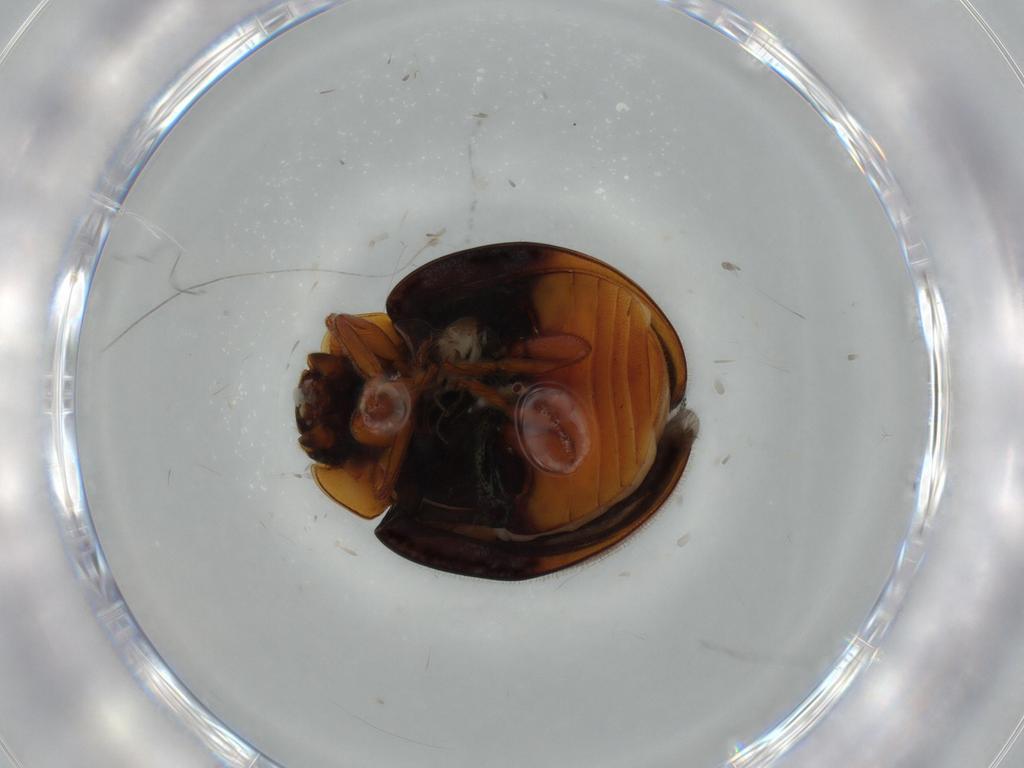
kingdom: Animalia
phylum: Arthropoda
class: Insecta
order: Coleoptera
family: Coccinellidae
